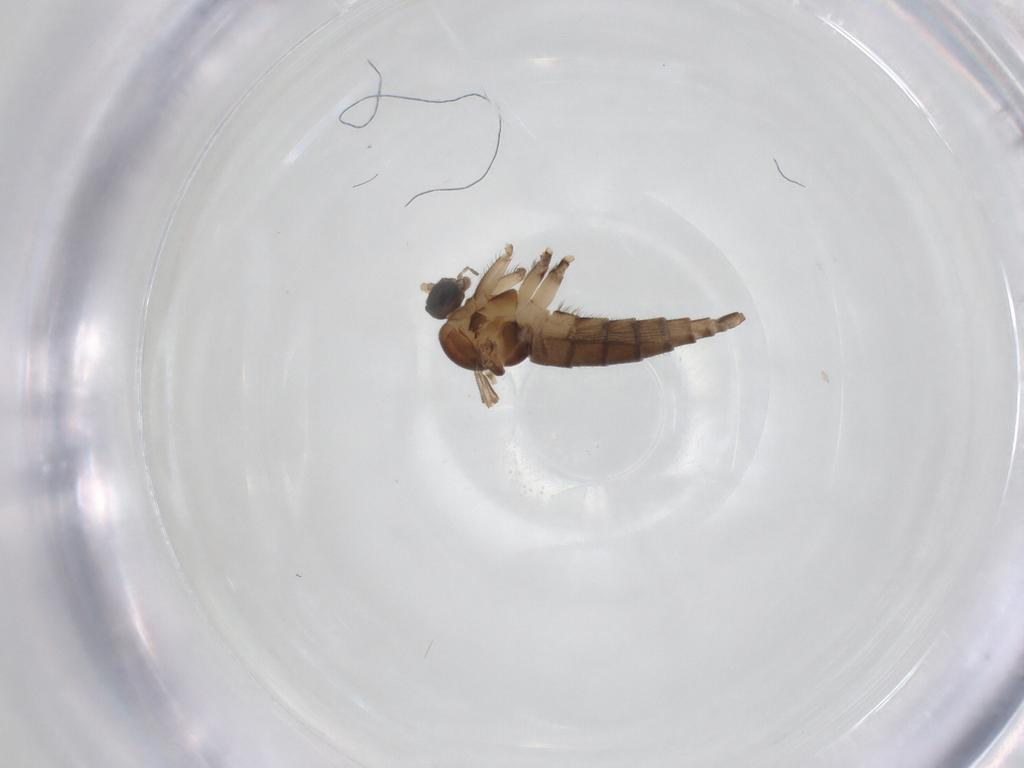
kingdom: Animalia
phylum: Arthropoda
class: Insecta
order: Diptera
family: Sciaridae
